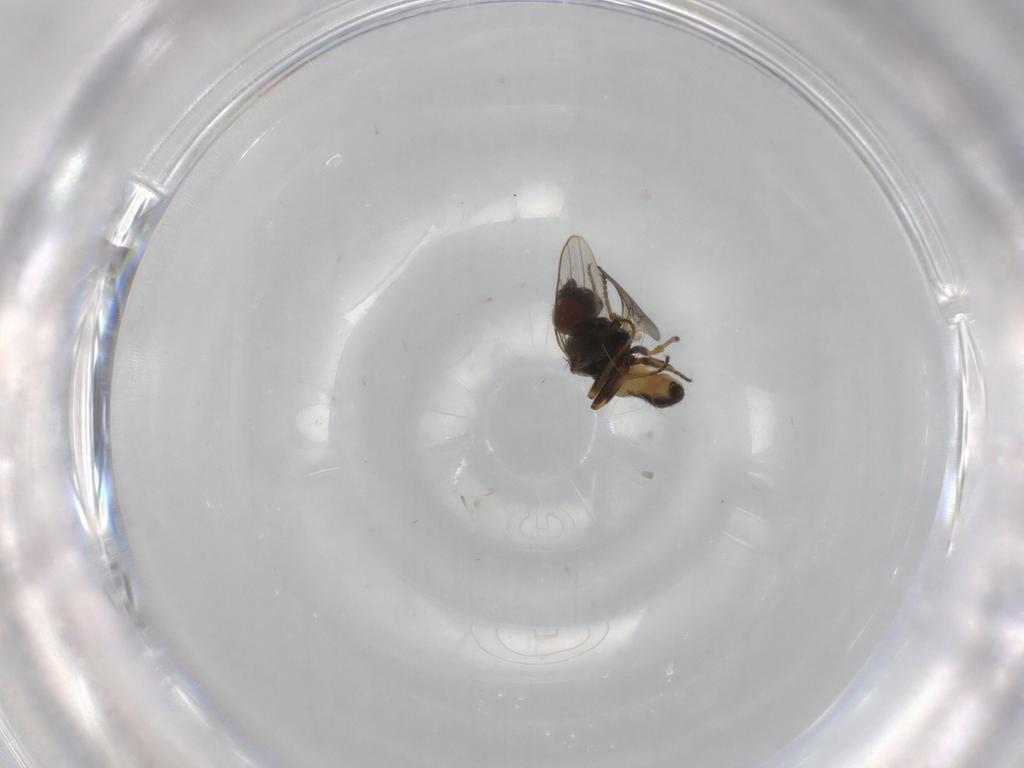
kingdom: Animalia
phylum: Arthropoda
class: Insecta
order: Diptera
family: Chloropidae
